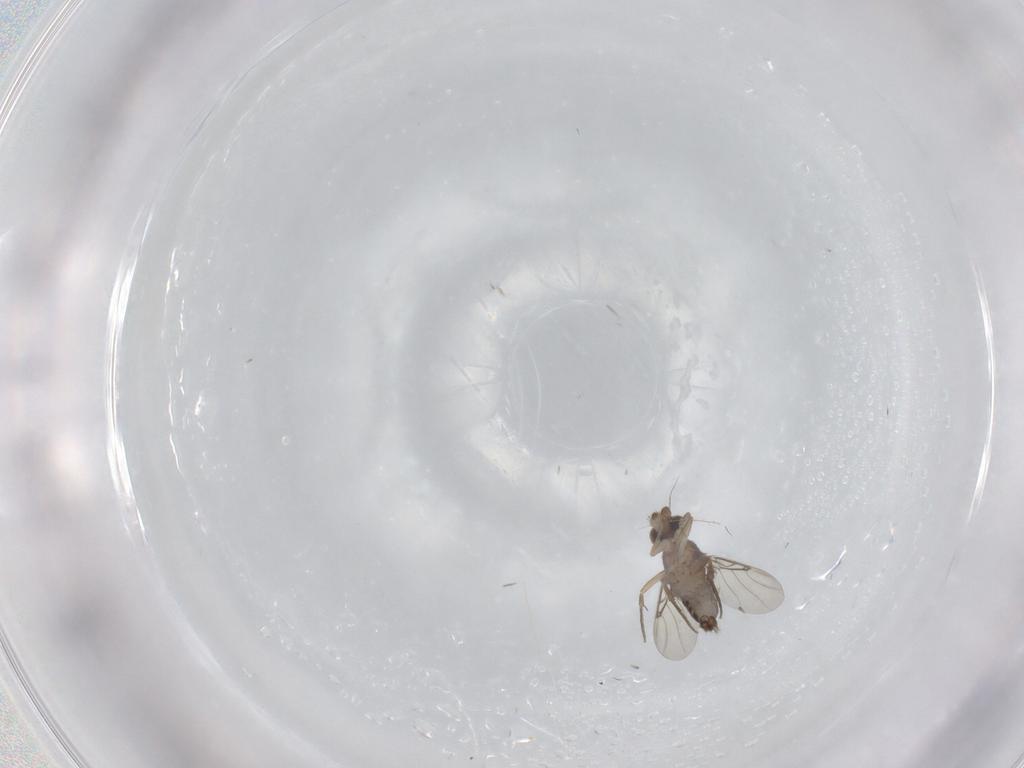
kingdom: Animalia
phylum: Arthropoda
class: Insecta
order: Diptera
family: Phoridae
